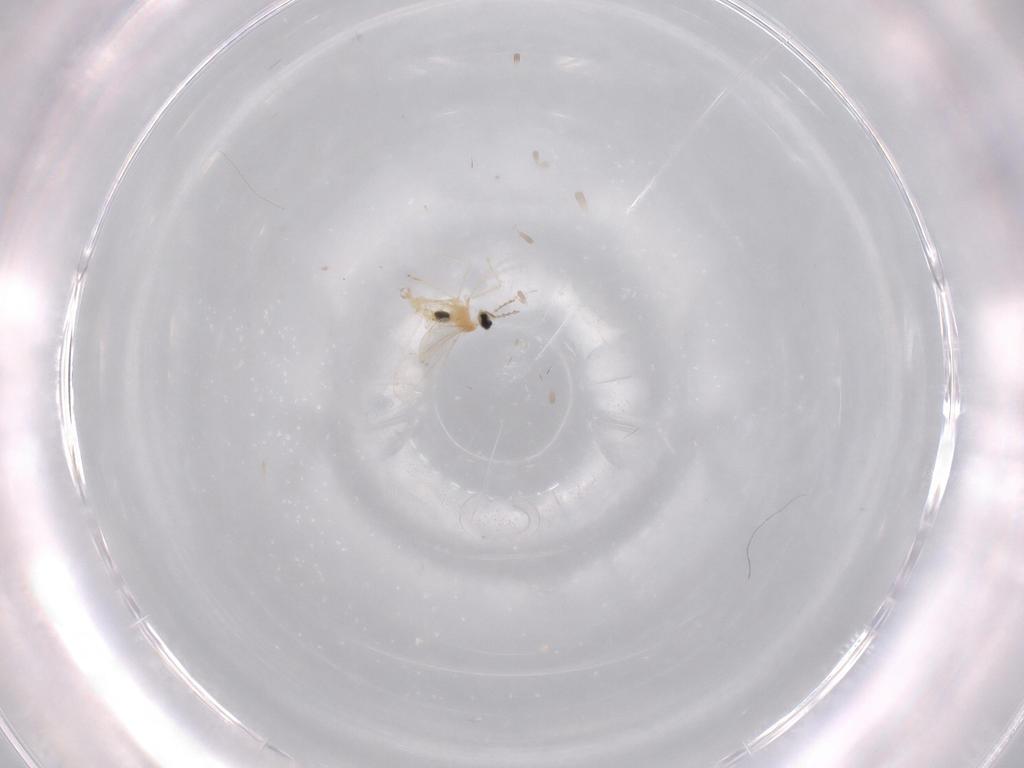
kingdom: Animalia
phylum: Arthropoda
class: Insecta
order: Diptera
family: Cecidomyiidae
